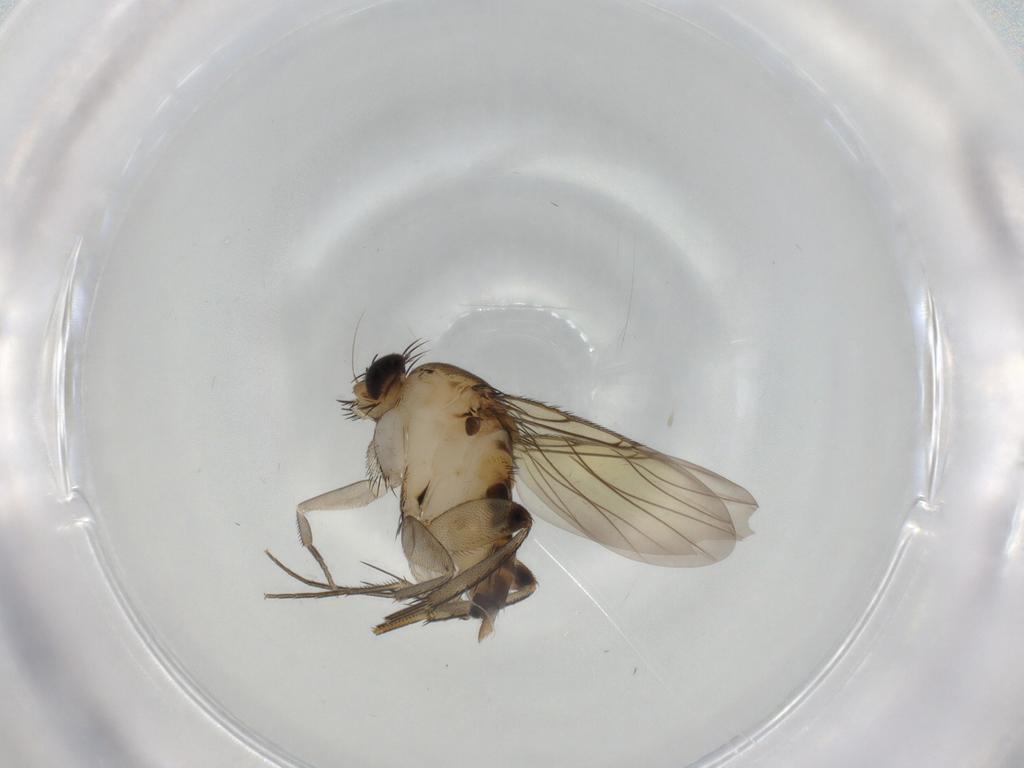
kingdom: Animalia
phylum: Arthropoda
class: Insecta
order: Diptera
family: Phoridae
